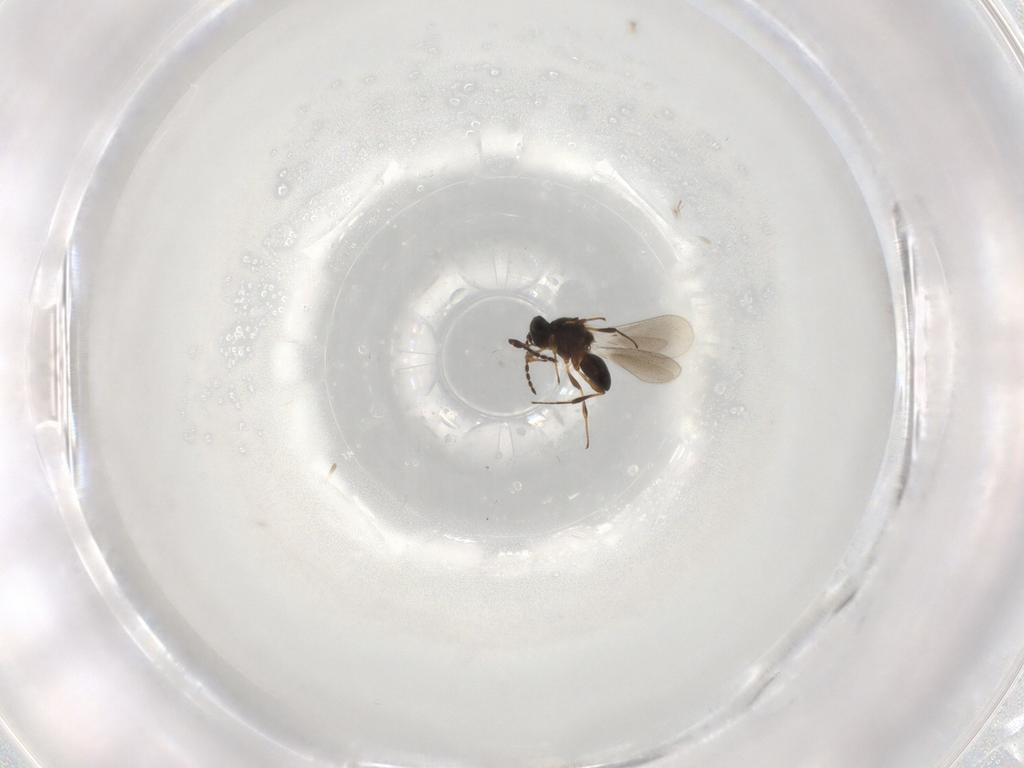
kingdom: Animalia
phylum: Arthropoda
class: Insecta
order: Hymenoptera
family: Platygastridae
